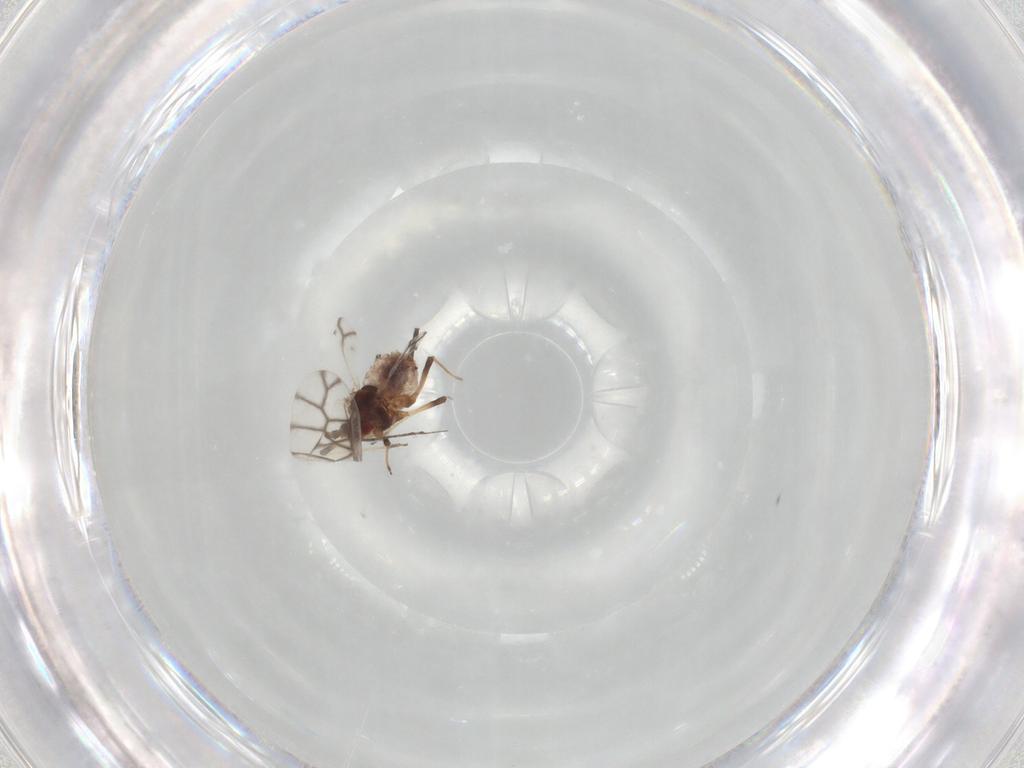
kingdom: Animalia
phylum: Arthropoda
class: Insecta
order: Hemiptera
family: Aphididae
